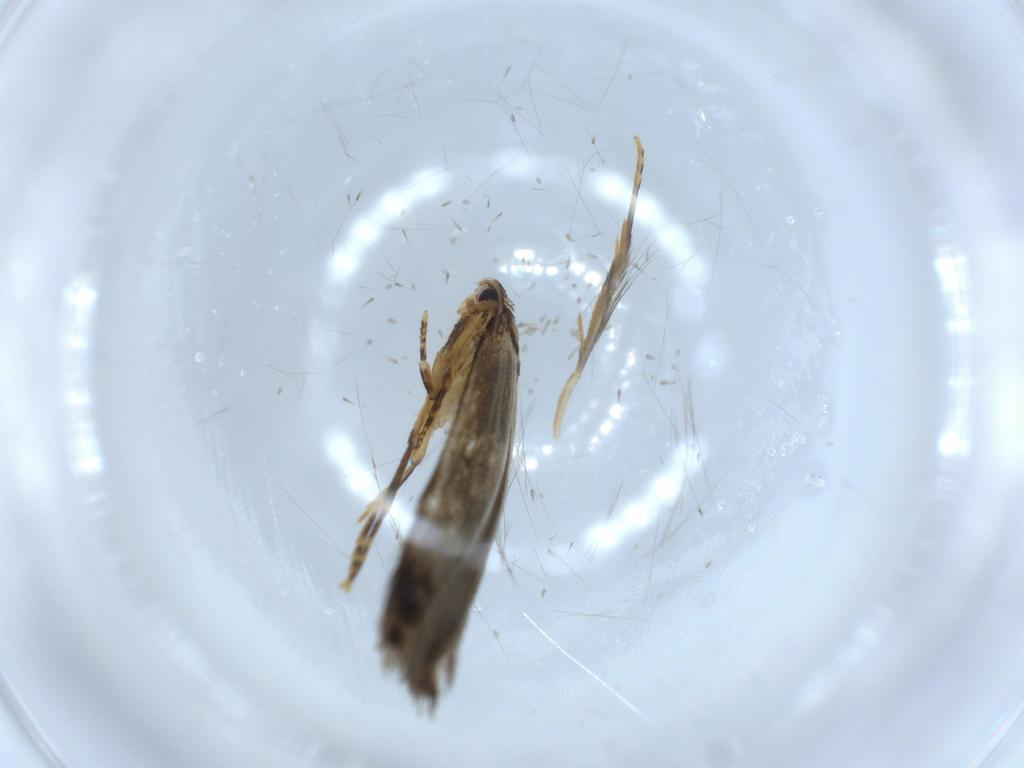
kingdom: Animalia
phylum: Arthropoda
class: Insecta
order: Lepidoptera
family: Tineidae
